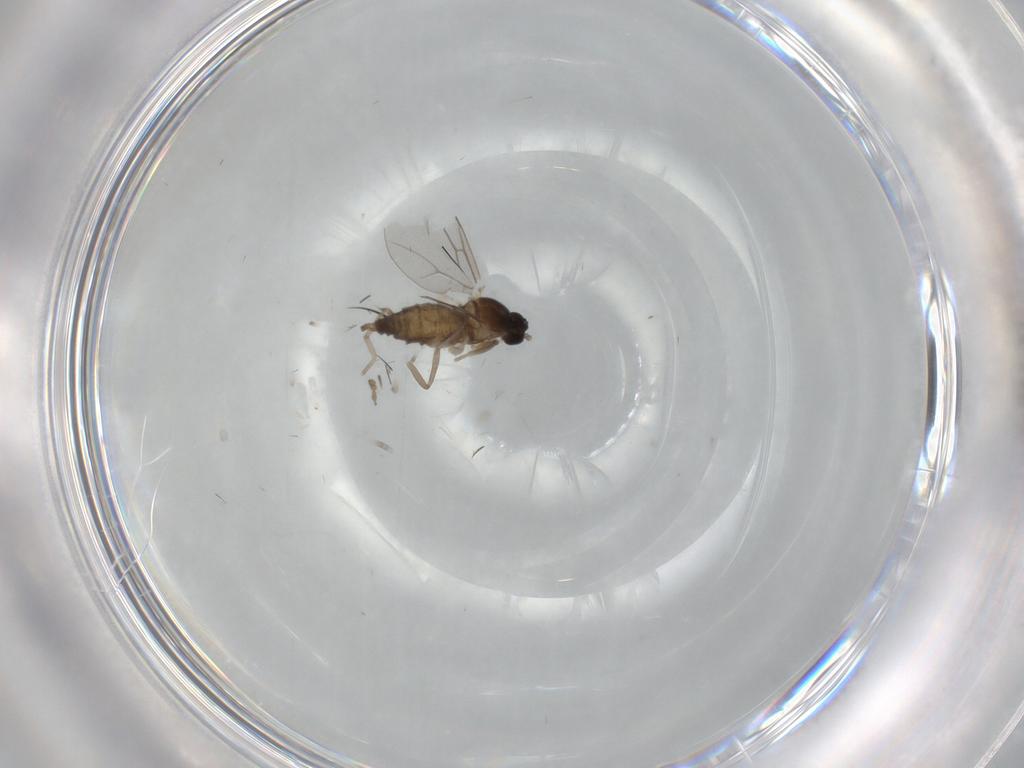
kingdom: Animalia
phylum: Arthropoda
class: Insecta
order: Diptera
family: Cecidomyiidae
